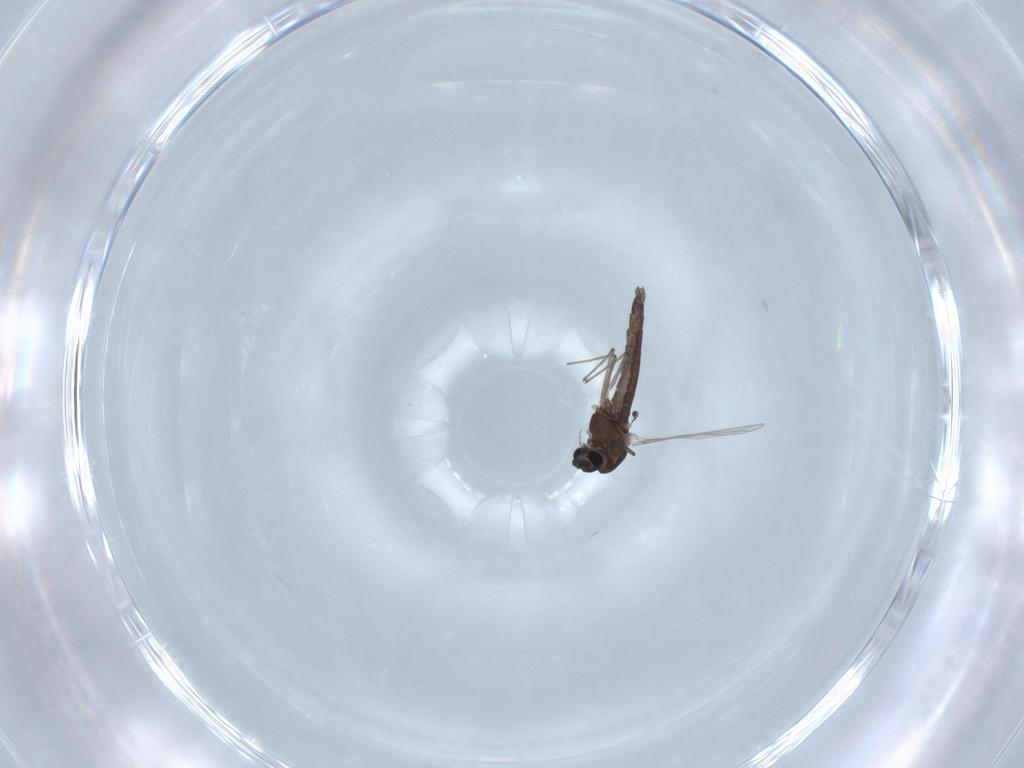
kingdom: Animalia
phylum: Arthropoda
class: Insecta
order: Diptera
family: Chironomidae
